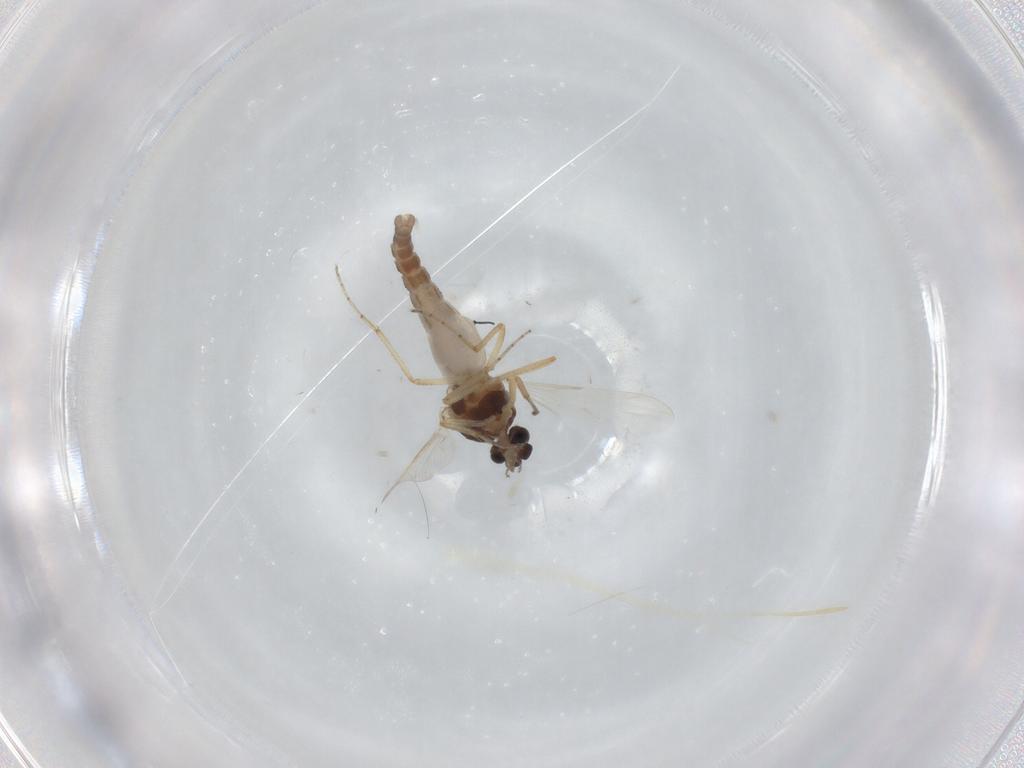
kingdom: Animalia
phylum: Arthropoda
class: Insecta
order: Diptera
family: Ceratopogonidae
